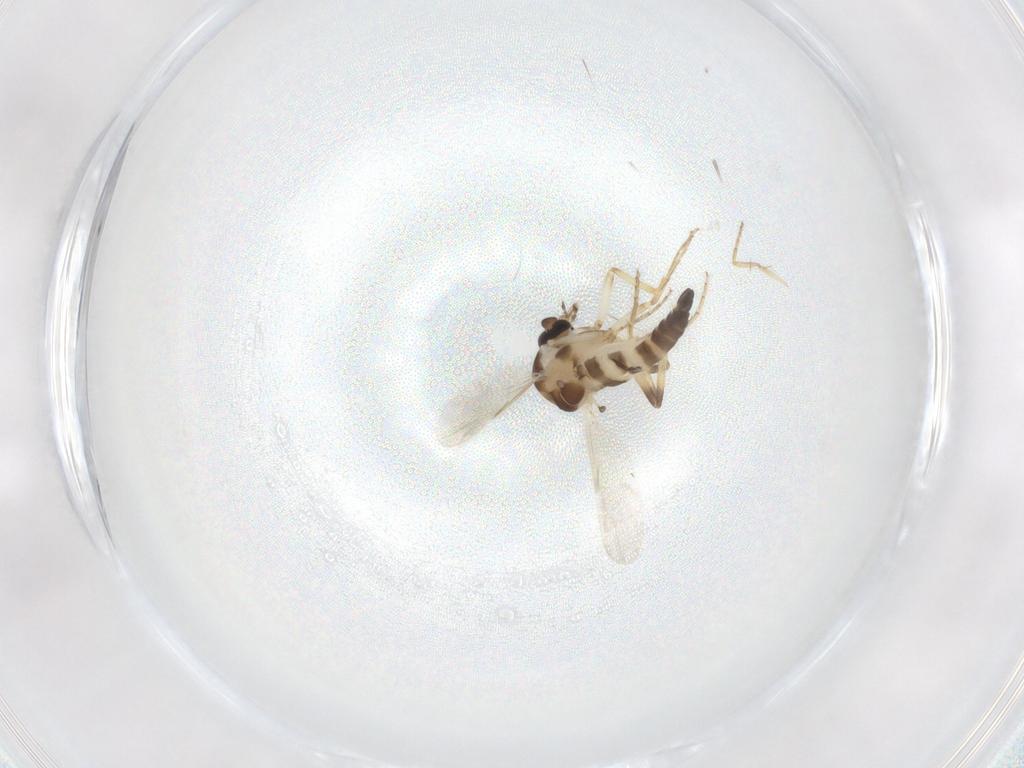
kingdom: Animalia
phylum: Arthropoda
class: Insecta
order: Diptera
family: Ceratopogonidae
